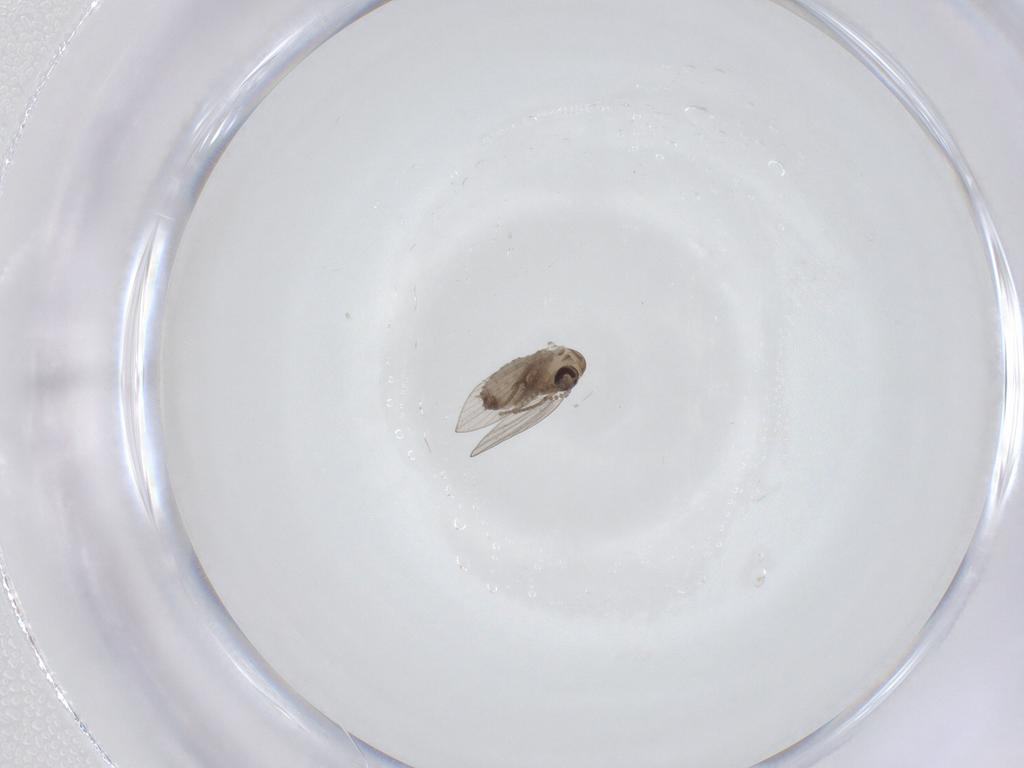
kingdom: Animalia
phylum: Arthropoda
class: Insecta
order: Diptera
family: Psychodidae
